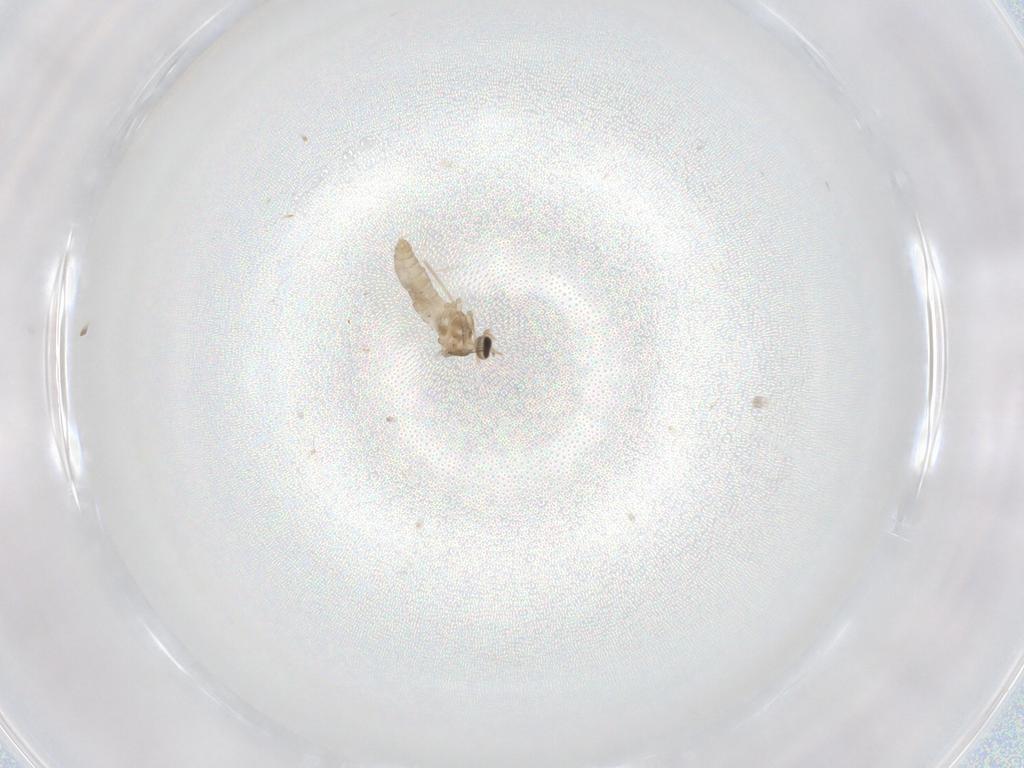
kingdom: Animalia
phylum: Arthropoda
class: Insecta
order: Diptera
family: Cecidomyiidae
